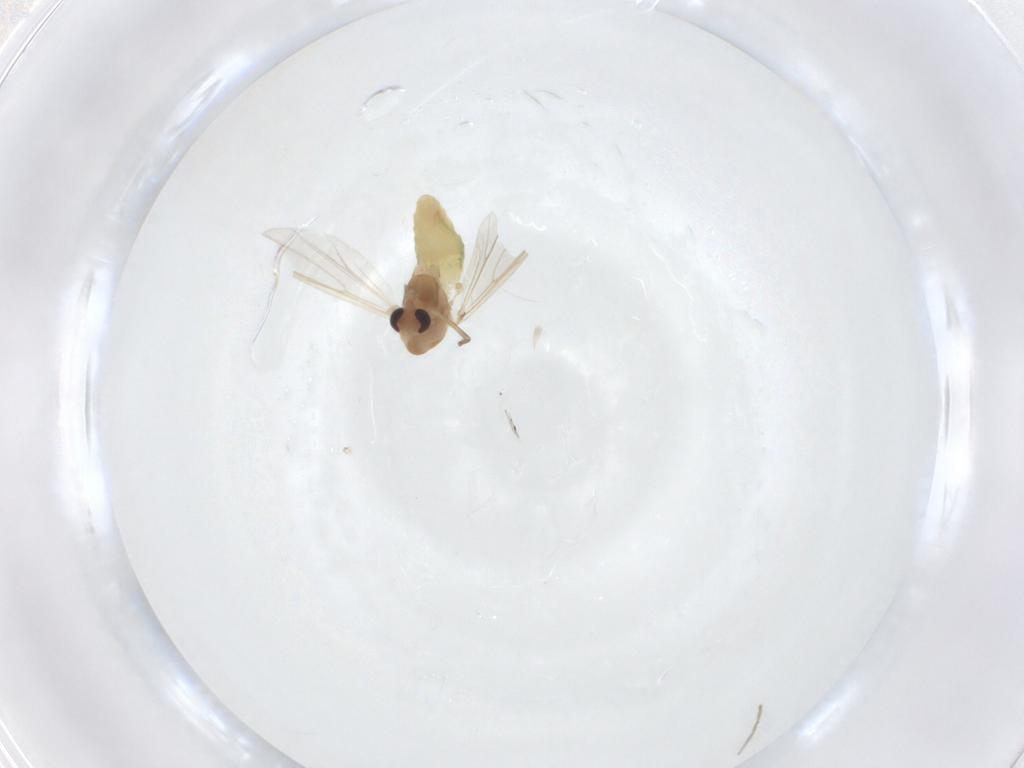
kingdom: Animalia
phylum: Arthropoda
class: Insecta
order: Diptera
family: Chironomidae
